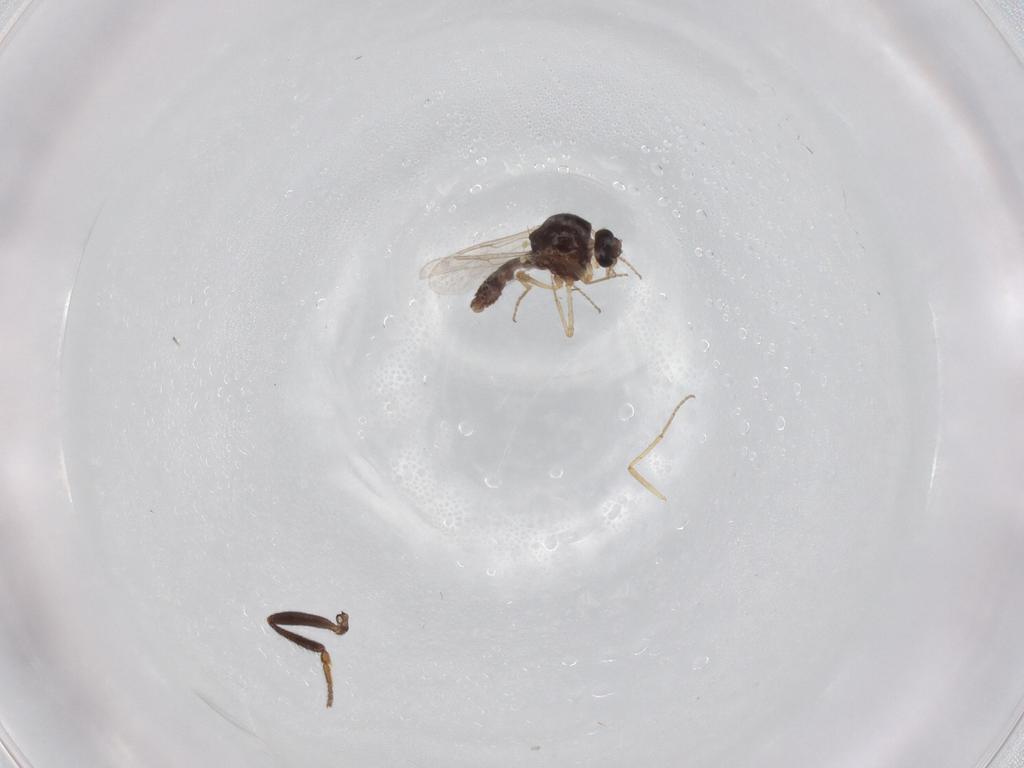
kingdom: Animalia
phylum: Arthropoda
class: Insecta
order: Diptera
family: Ceratopogonidae
